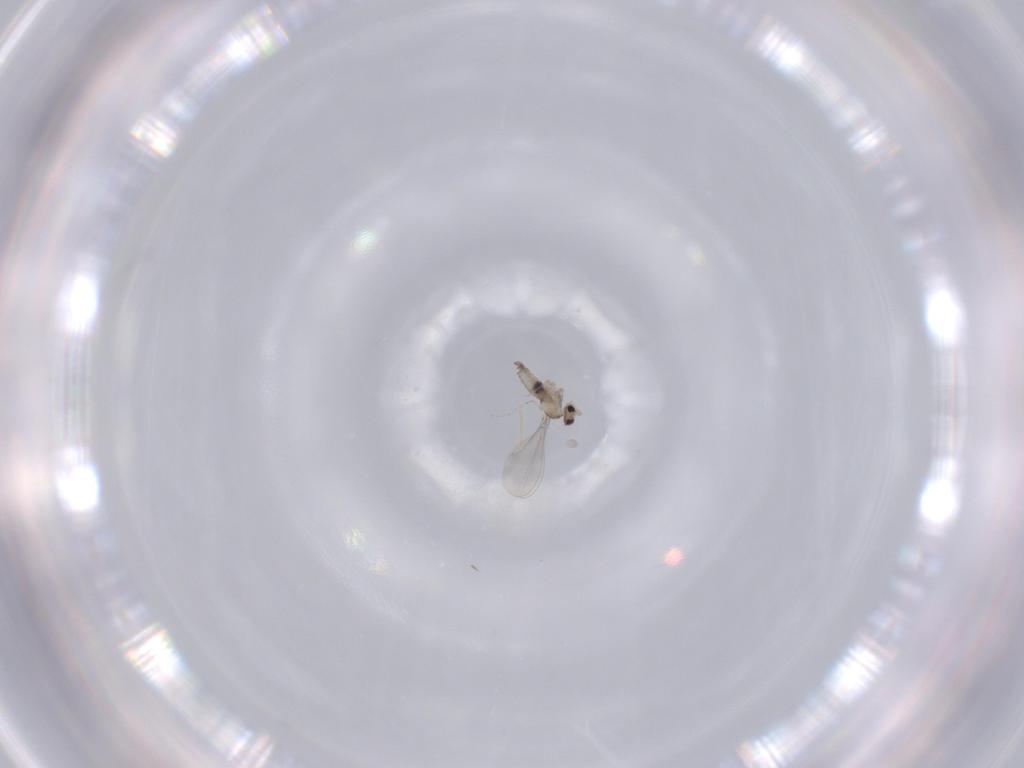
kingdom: Animalia
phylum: Arthropoda
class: Insecta
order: Diptera
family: Cecidomyiidae
